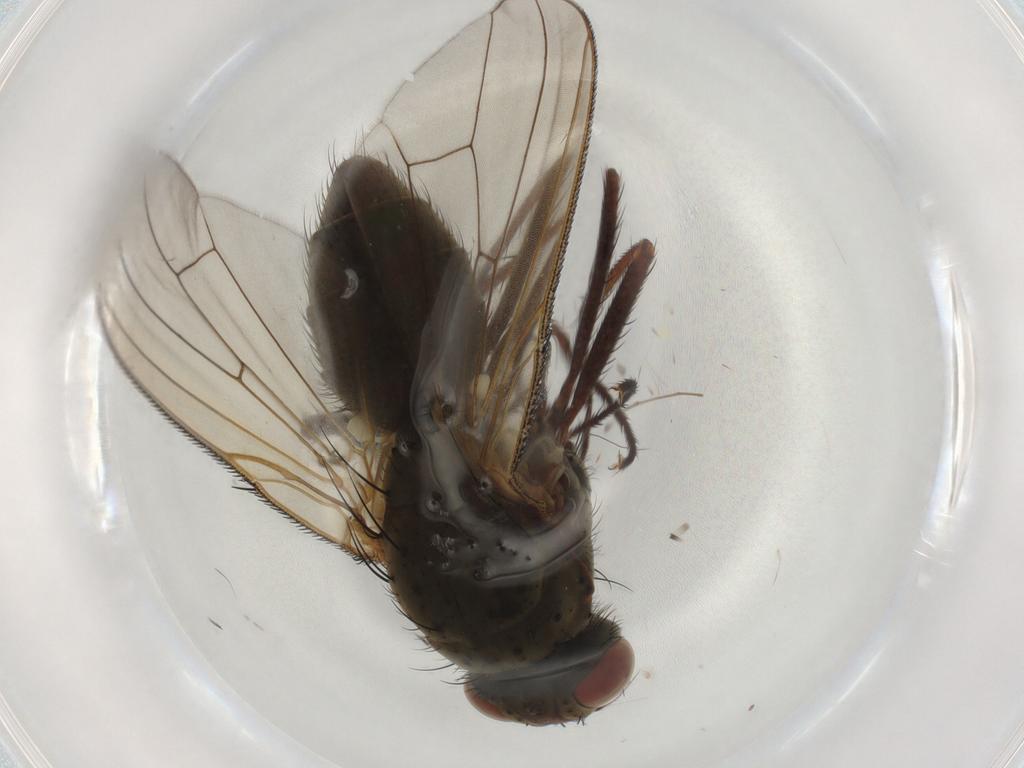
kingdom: Animalia
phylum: Arthropoda
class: Insecta
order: Diptera
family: Anthomyiidae
